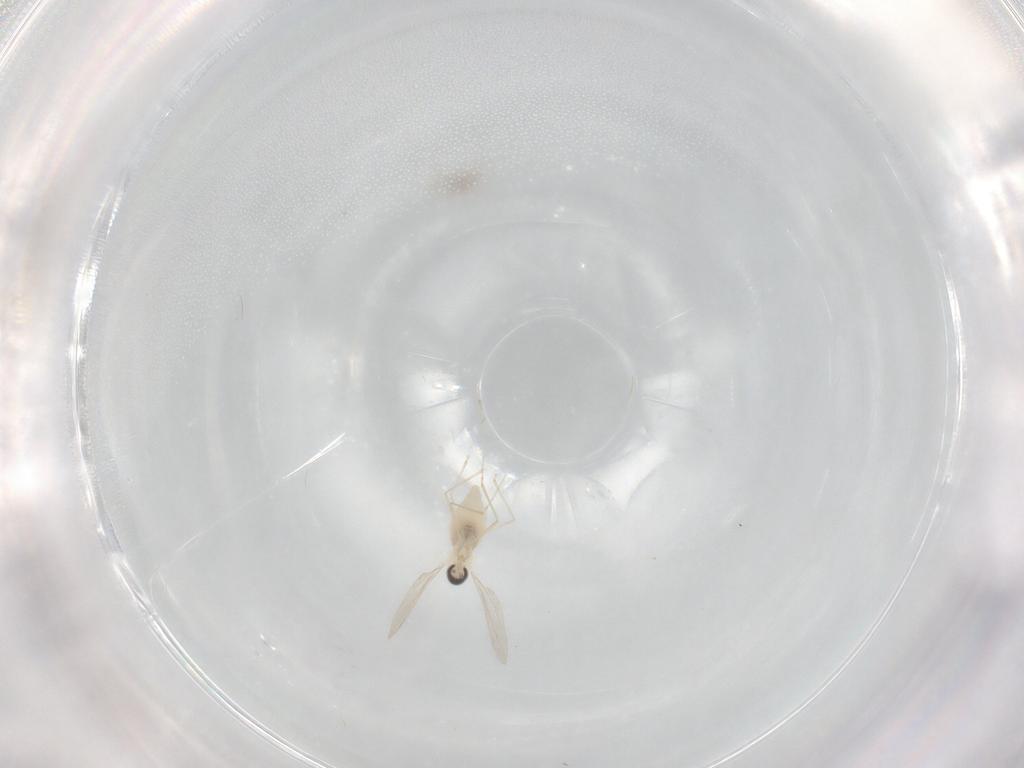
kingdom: Animalia
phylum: Arthropoda
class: Insecta
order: Diptera
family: Cecidomyiidae
